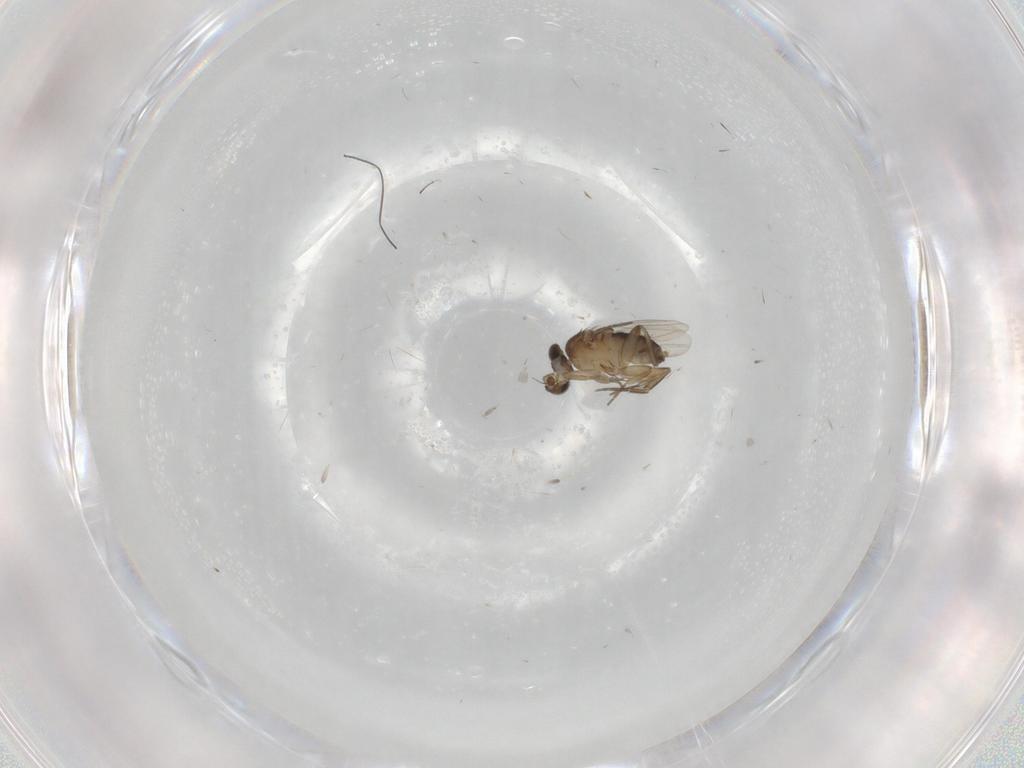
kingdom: Animalia
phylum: Arthropoda
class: Insecta
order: Diptera
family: Phoridae
